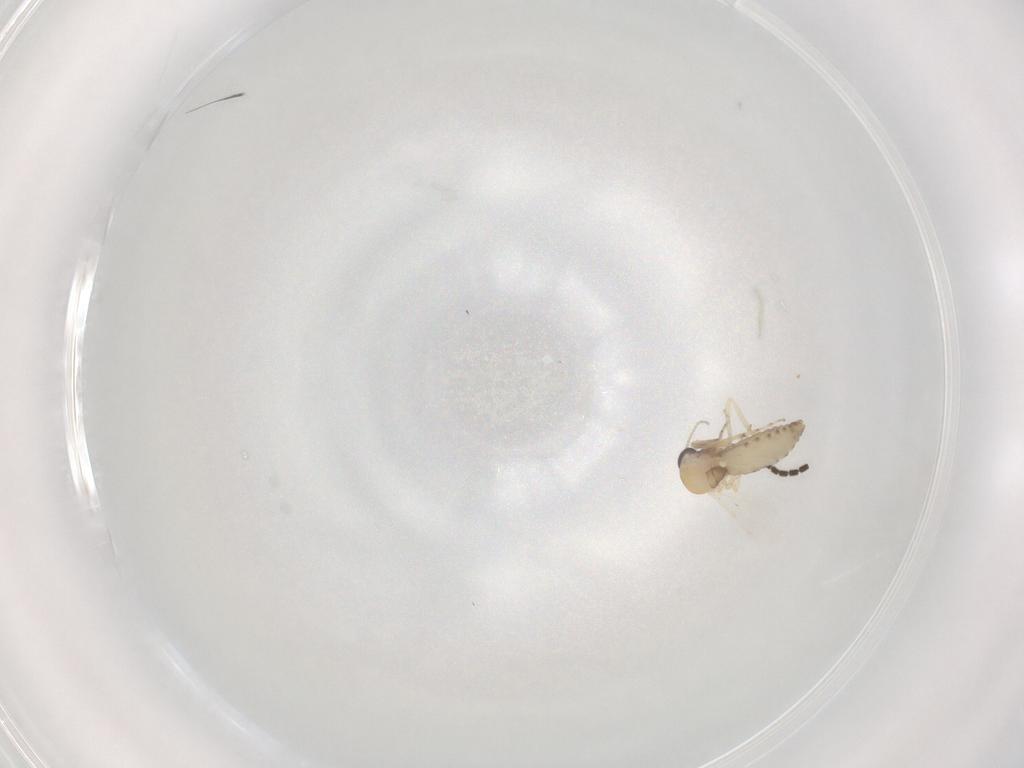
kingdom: Animalia
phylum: Arthropoda
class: Insecta
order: Diptera
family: Sciaridae
